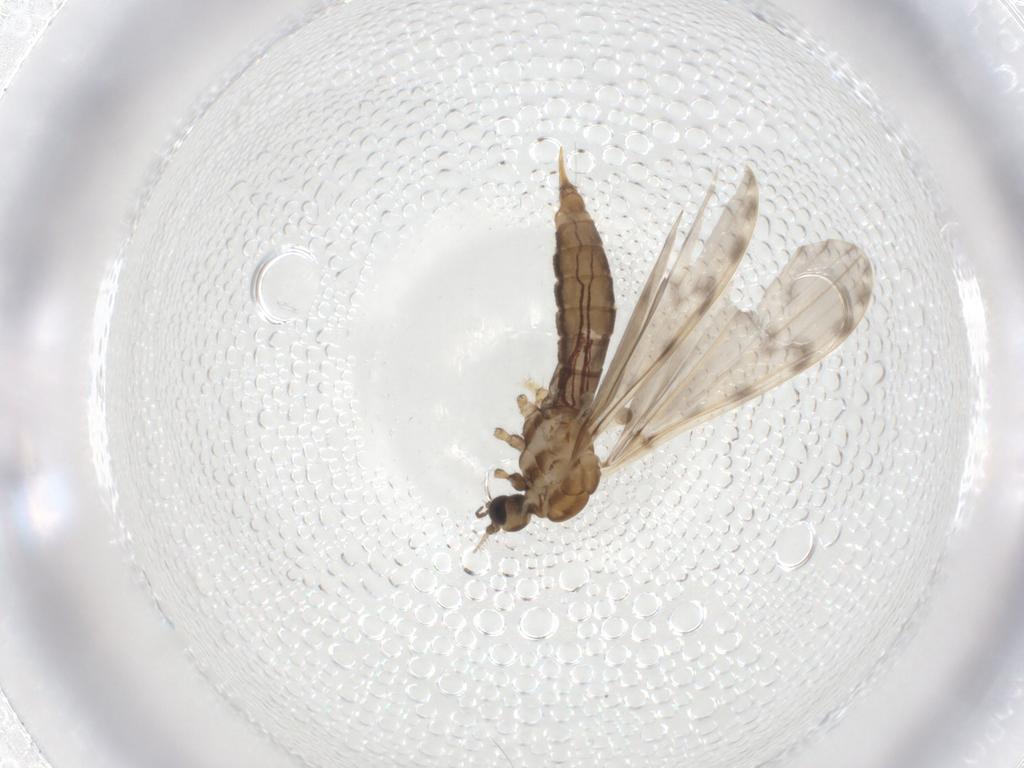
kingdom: Animalia
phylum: Arthropoda
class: Insecta
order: Diptera
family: Limoniidae
